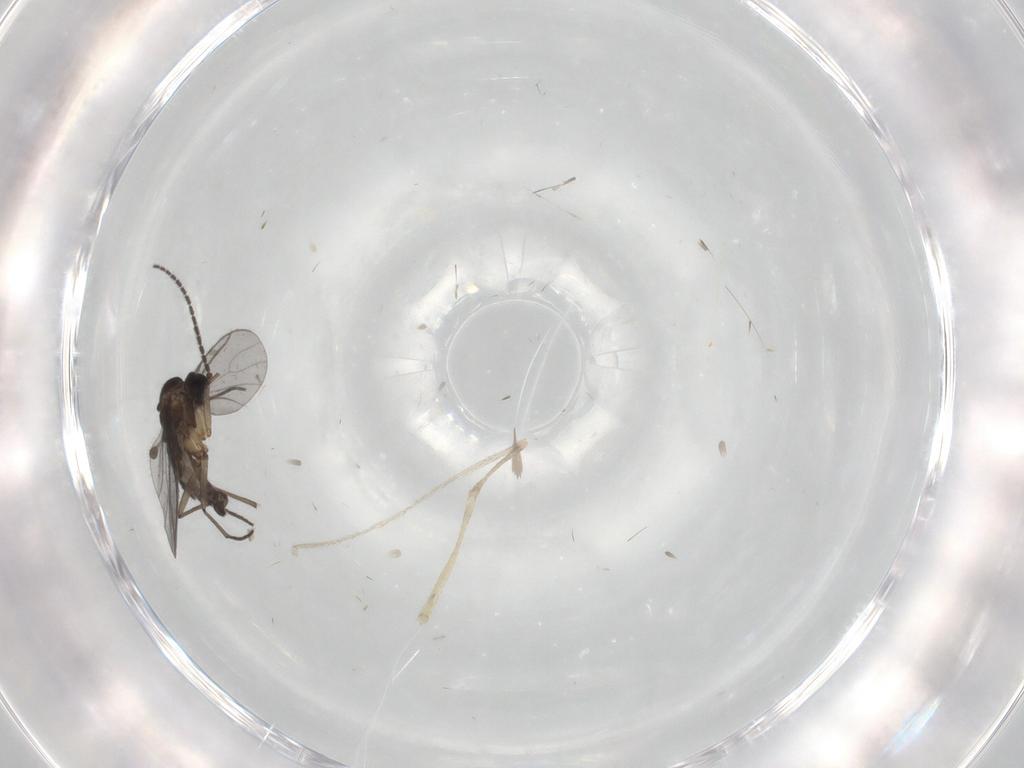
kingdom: Animalia
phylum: Arthropoda
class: Insecta
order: Diptera
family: Sciaridae
